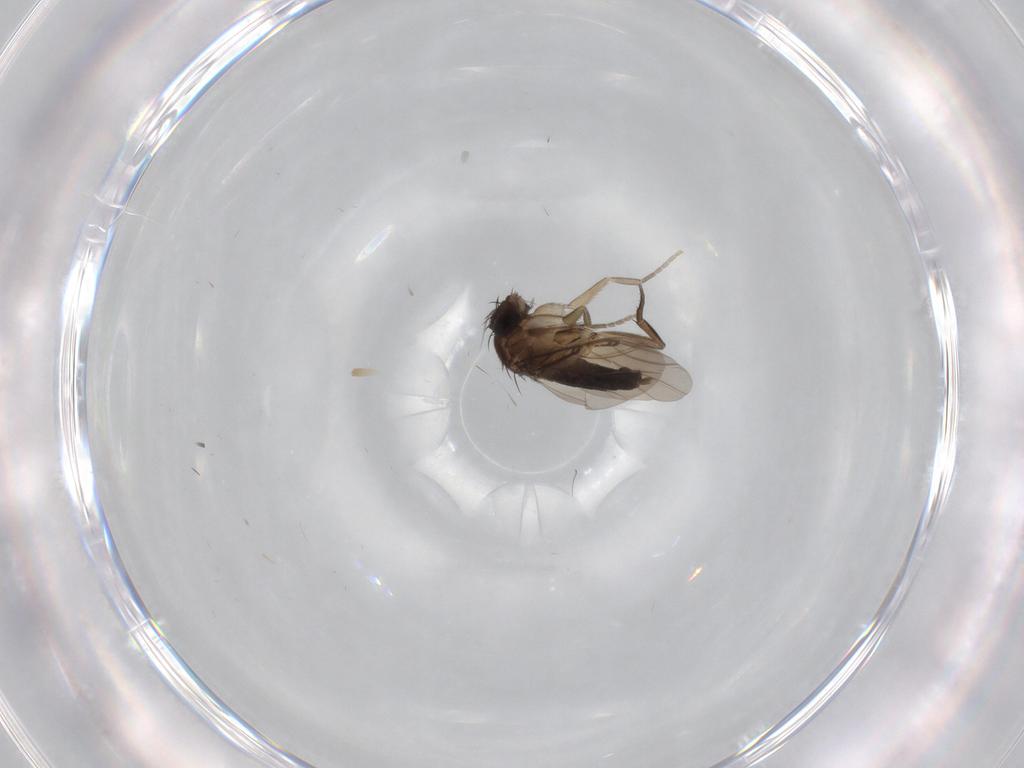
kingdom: Animalia
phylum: Arthropoda
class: Insecta
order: Diptera
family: Phoridae
